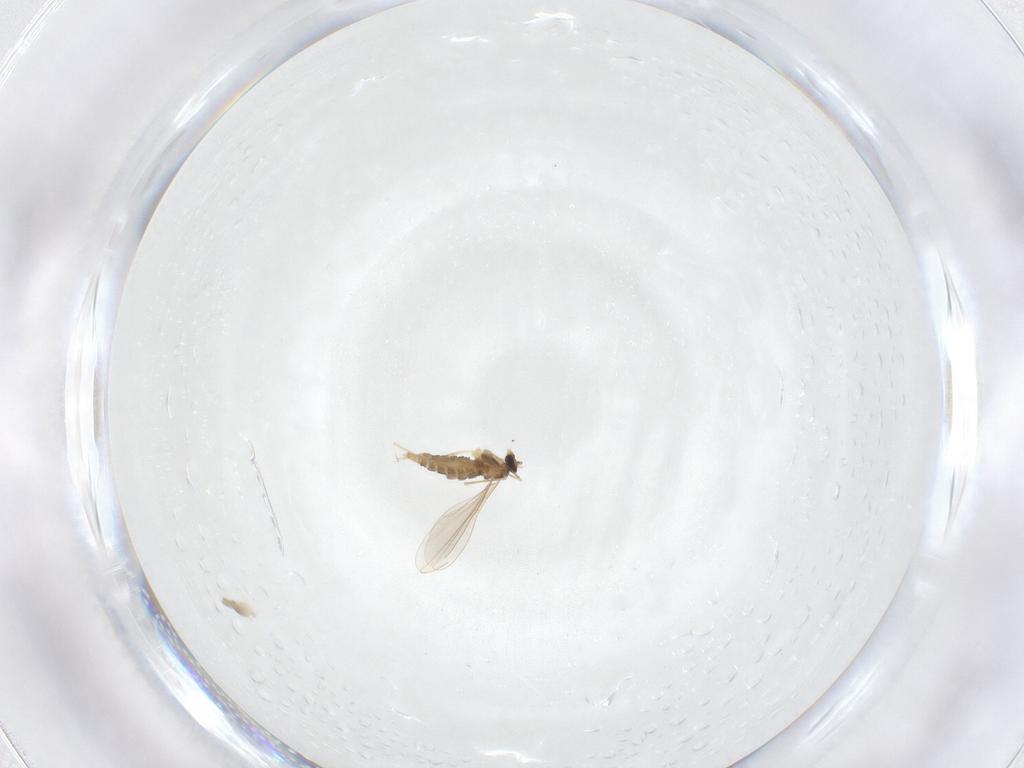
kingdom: Animalia
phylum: Arthropoda
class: Insecta
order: Diptera
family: Cecidomyiidae
